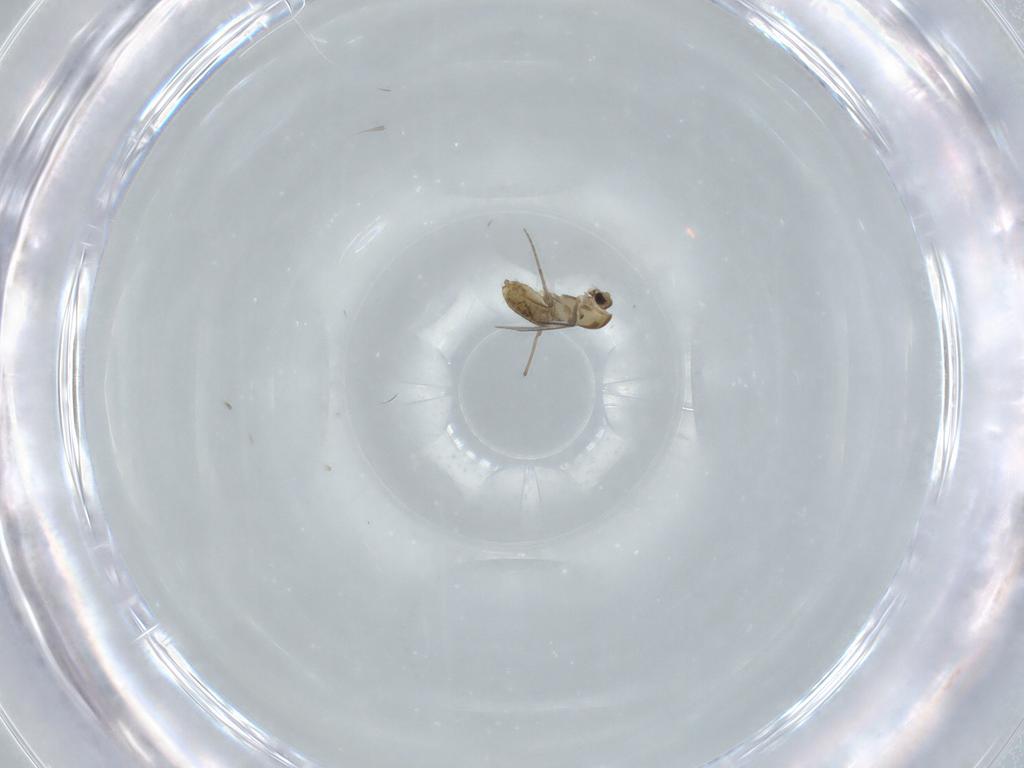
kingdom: Animalia
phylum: Arthropoda
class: Insecta
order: Diptera
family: Chironomidae
